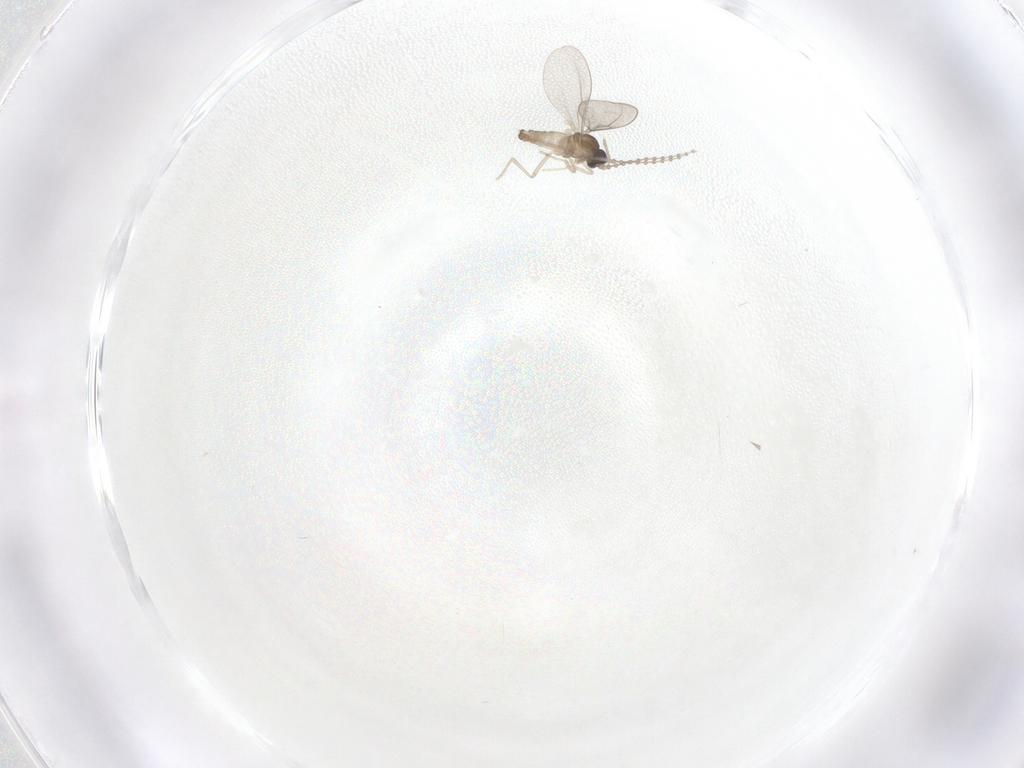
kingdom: Animalia
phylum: Arthropoda
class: Insecta
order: Diptera
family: Cecidomyiidae
